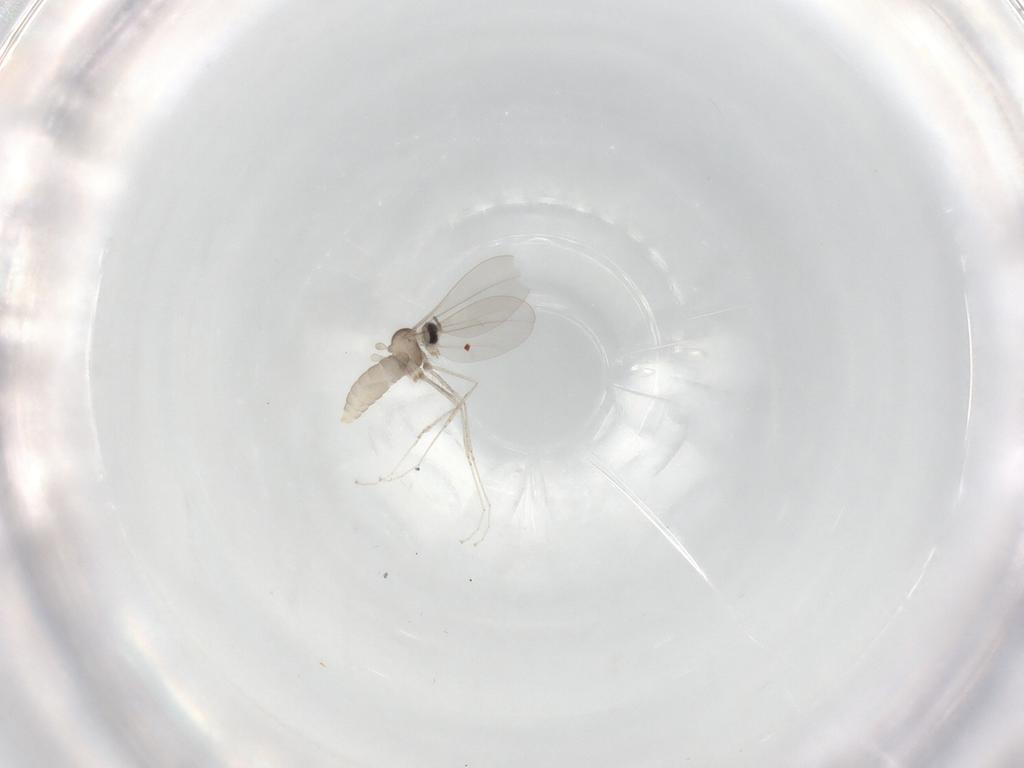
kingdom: Animalia
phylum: Arthropoda
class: Insecta
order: Diptera
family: Cecidomyiidae
